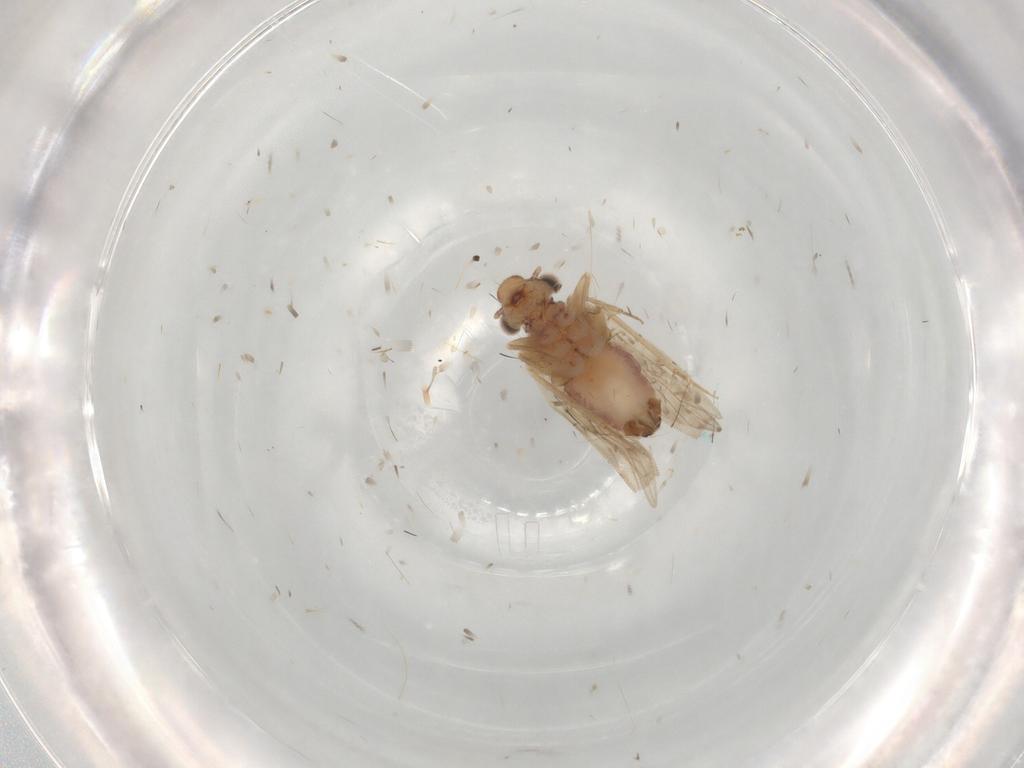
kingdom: Animalia
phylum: Arthropoda
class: Insecta
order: Psocodea
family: Lepidopsocidae
